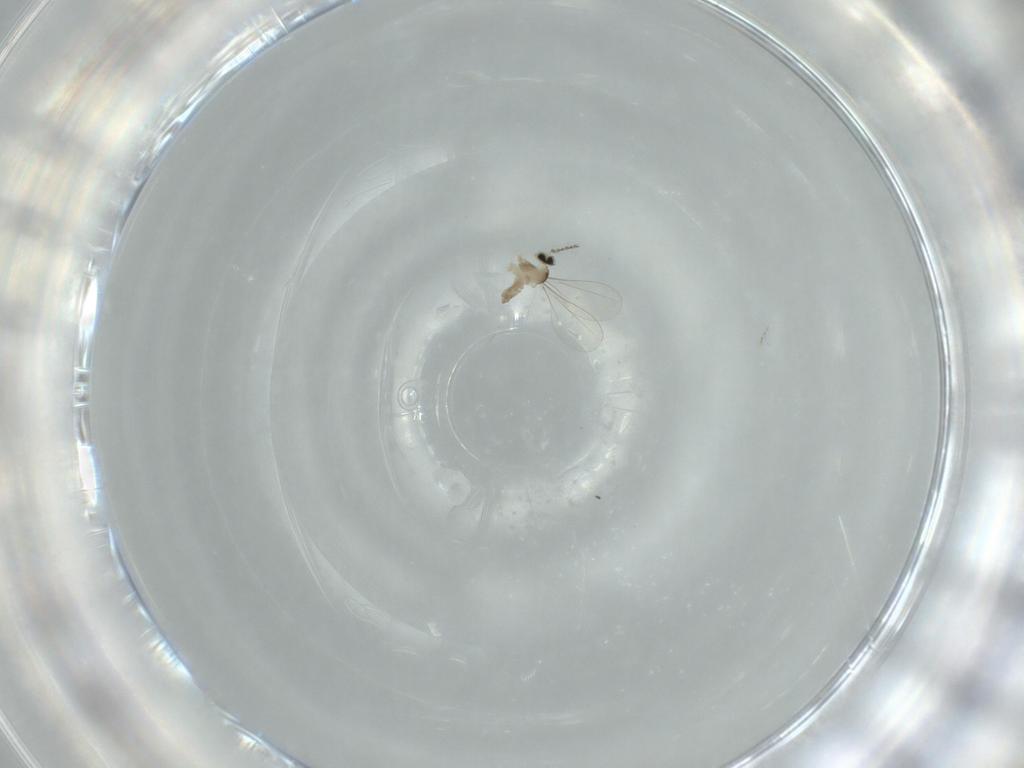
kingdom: Animalia
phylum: Arthropoda
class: Insecta
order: Diptera
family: Cecidomyiidae
